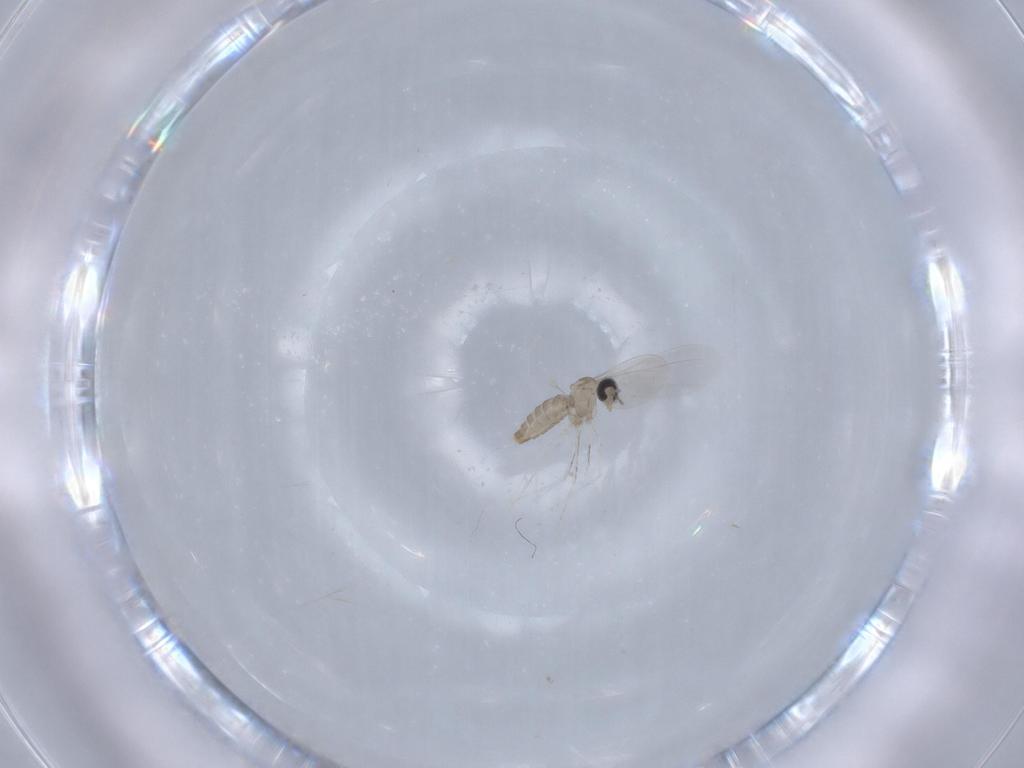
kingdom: Animalia
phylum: Arthropoda
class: Insecta
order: Diptera
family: Cecidomyiidae
